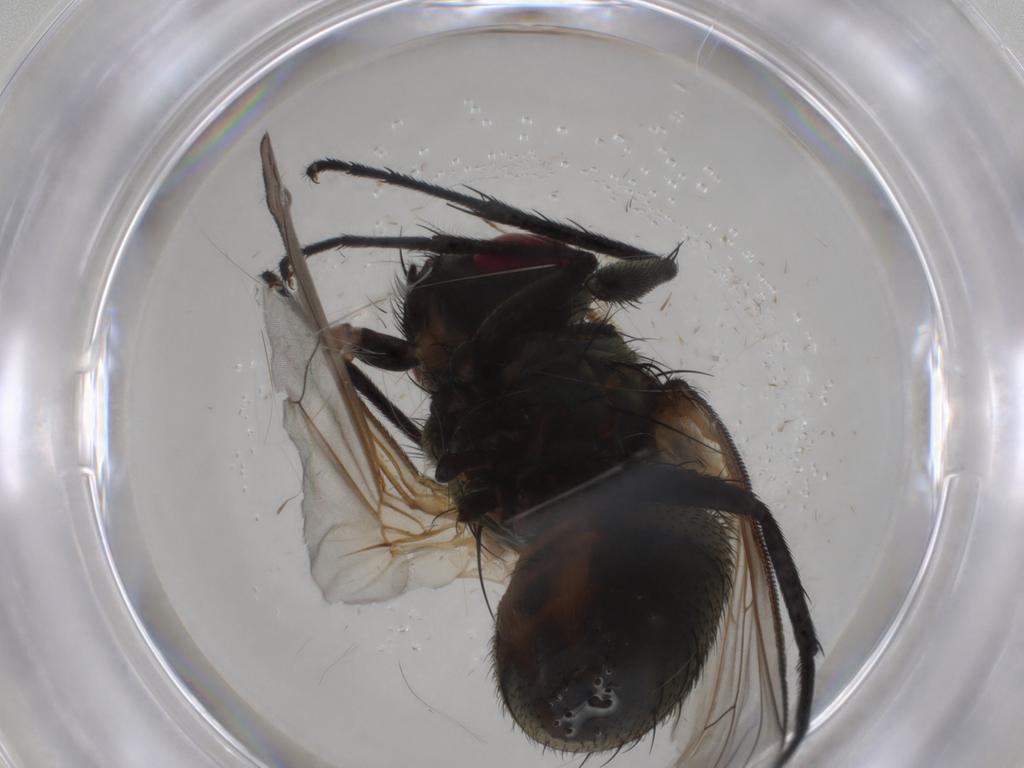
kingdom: Animalia
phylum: Arthropoda
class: Insecta
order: Diptera
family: Muscidae
